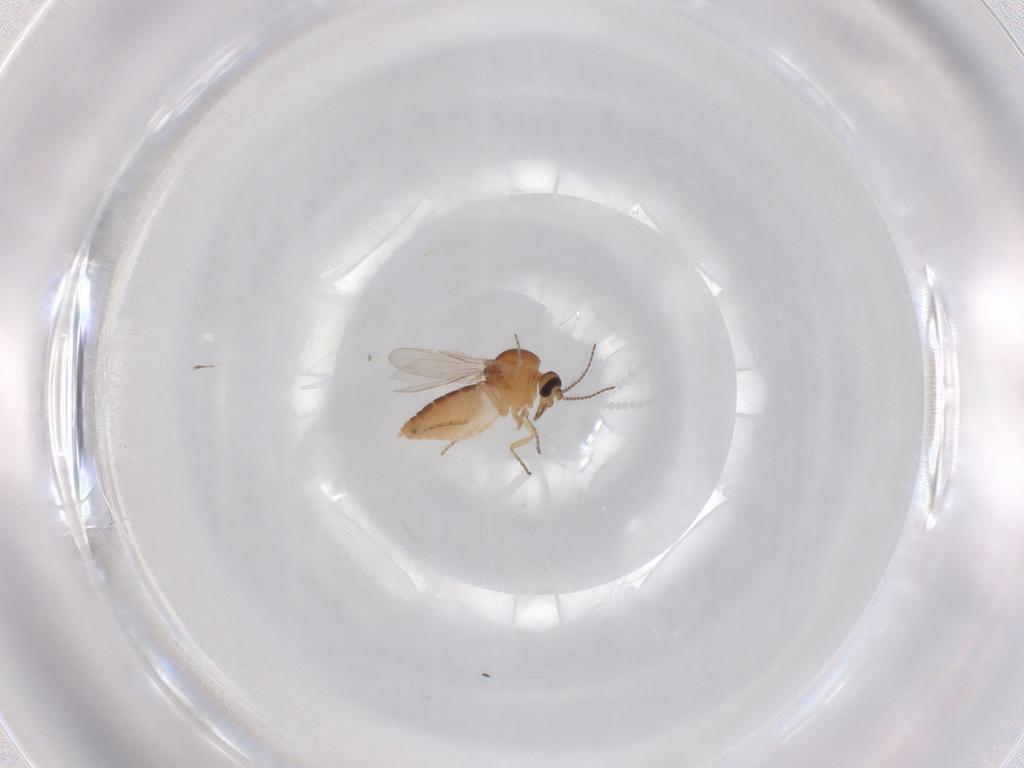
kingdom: Animalia
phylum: Arthropoda
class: Insecta
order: Diptera
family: Ceratopogonidae
